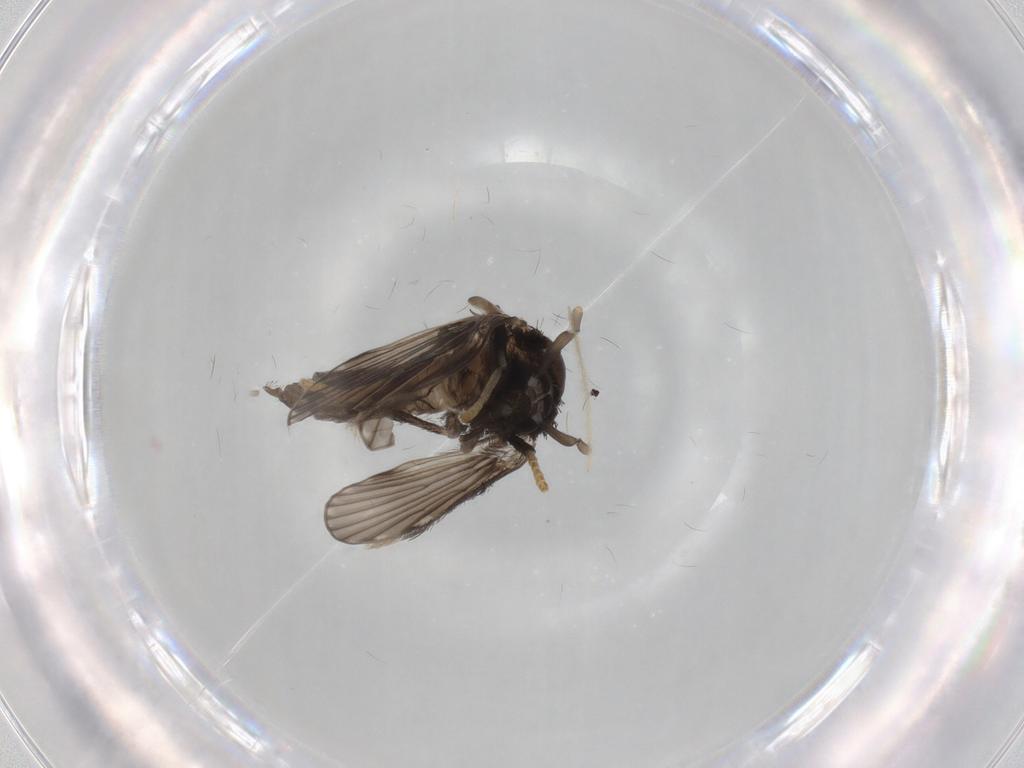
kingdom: Animalia
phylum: Arthropoda
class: Insecta
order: Diptera
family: Psychodidae
